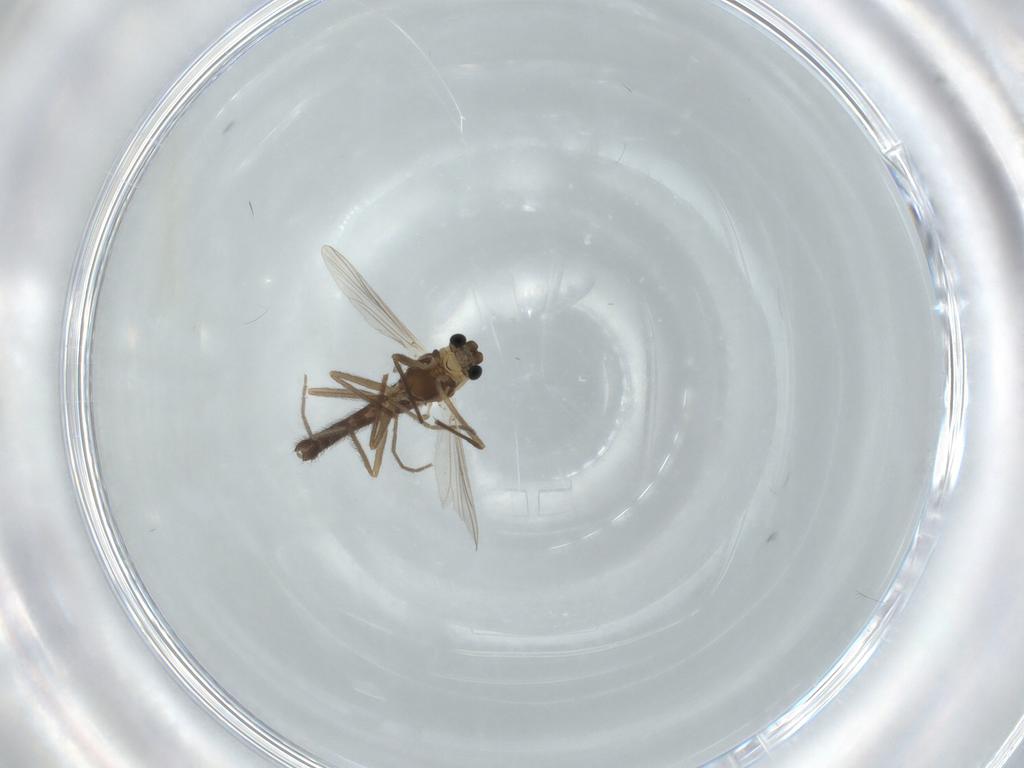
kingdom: Animalia
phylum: Arthropoda
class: Insecta
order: Diptera
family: Chironomidae
